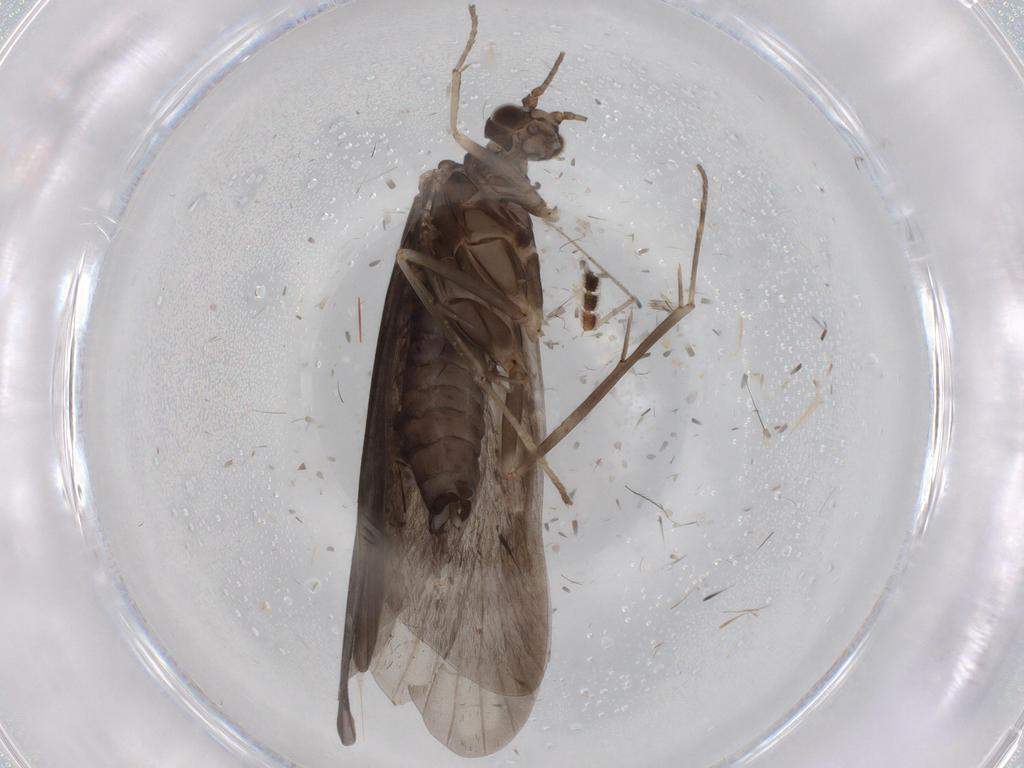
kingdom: Animalia
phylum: Arthropoda
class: Insecta
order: Trichoptera
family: Hydropsychidae
